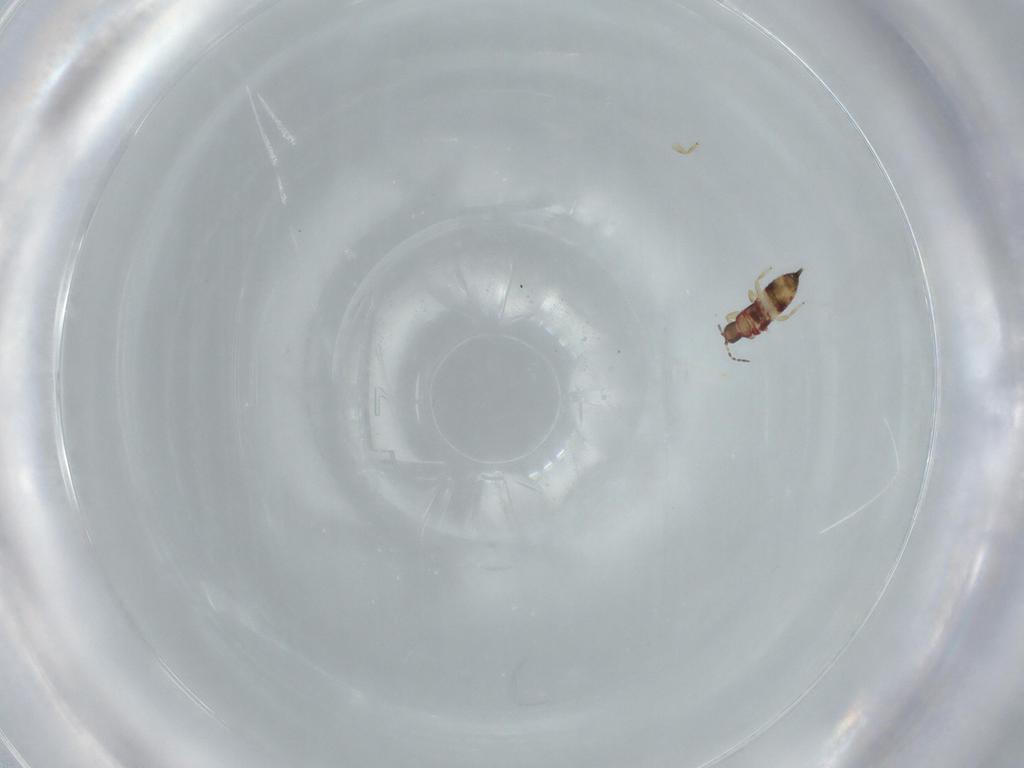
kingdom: Animalia
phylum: Arthropoda
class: Insecta
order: Thysanoptera
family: Phlaeothripidae
